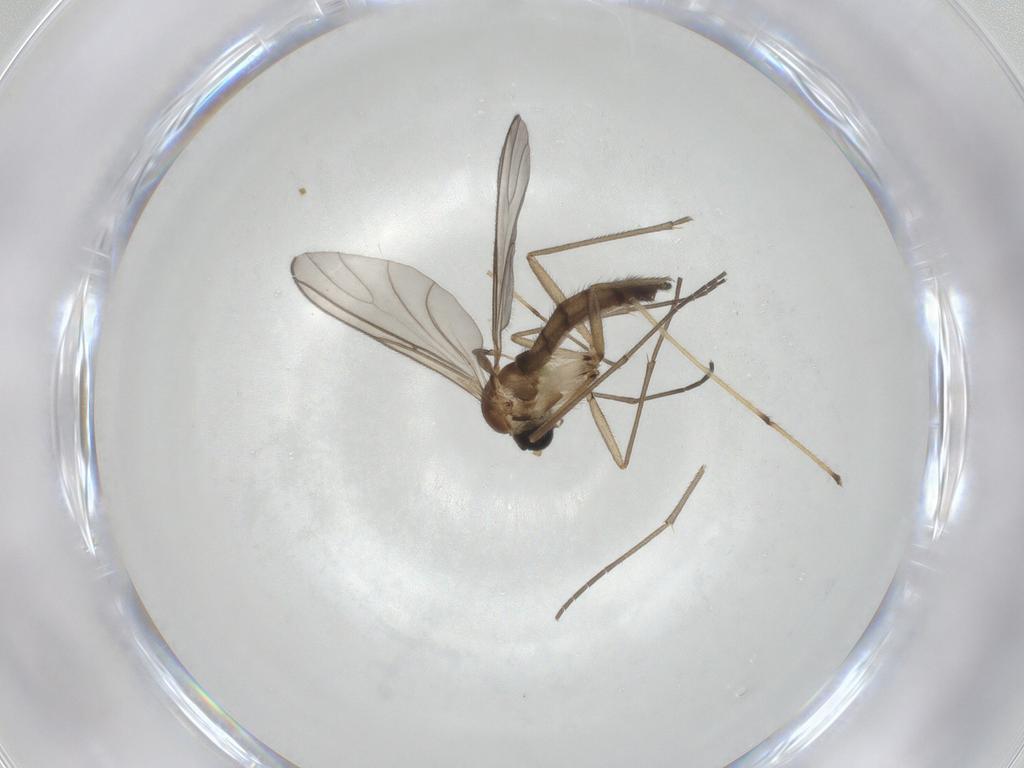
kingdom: Animalia
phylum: Arthropoda
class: Insecta
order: Diptera
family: Sciaridae
